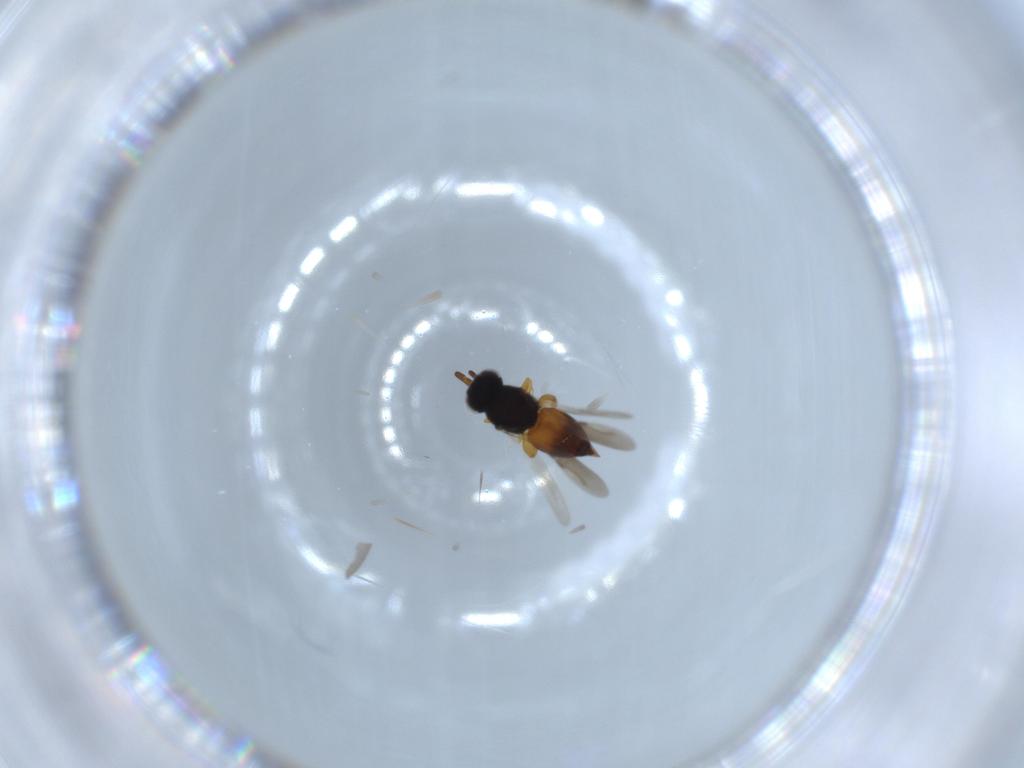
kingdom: Animalia
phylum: Arthropoda
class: Insecta
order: Hymenoptera
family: Ceraphronidae
